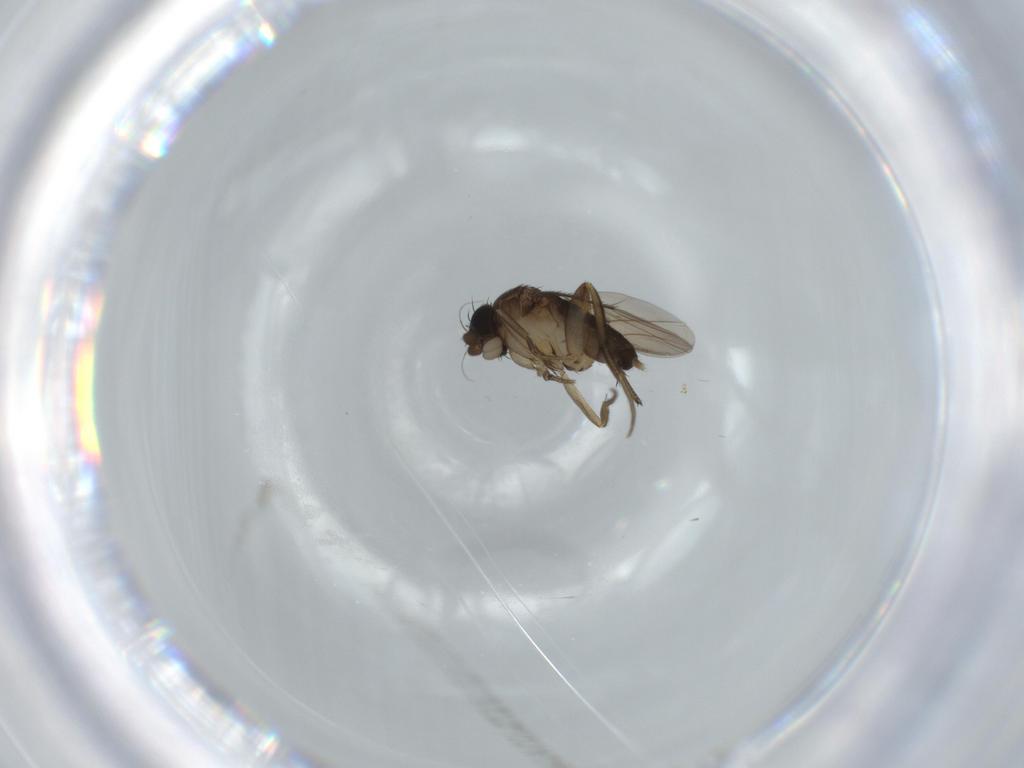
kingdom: Animalia
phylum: Arthropoda
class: Insecta
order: Diptera
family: Phoridae
